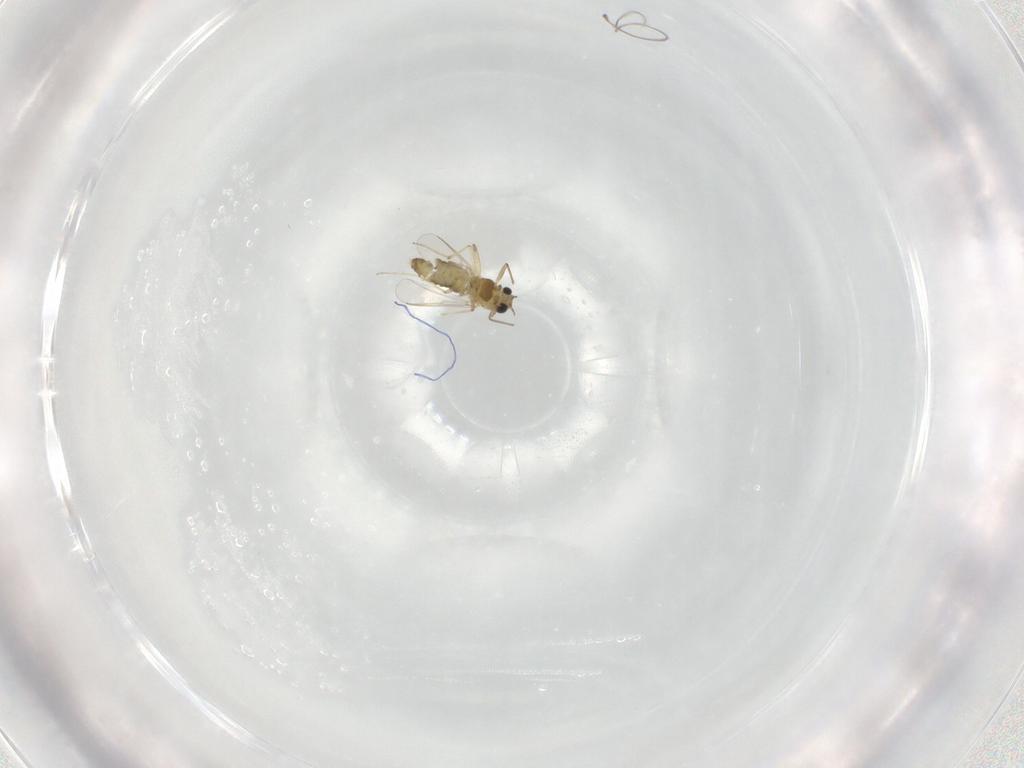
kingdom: Animalia
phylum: Arthropoda
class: Insecta
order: Diptera
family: Chironomidae
